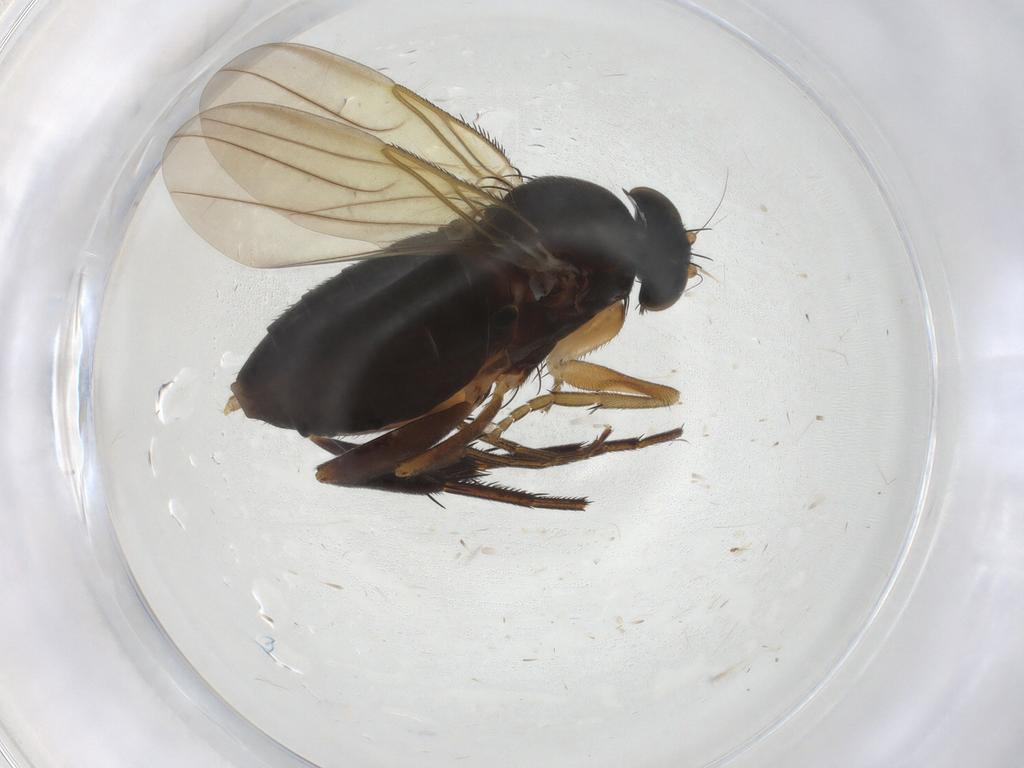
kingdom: Animalia
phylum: Arthropoda
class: Insecta
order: Diptera
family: Phoridae
